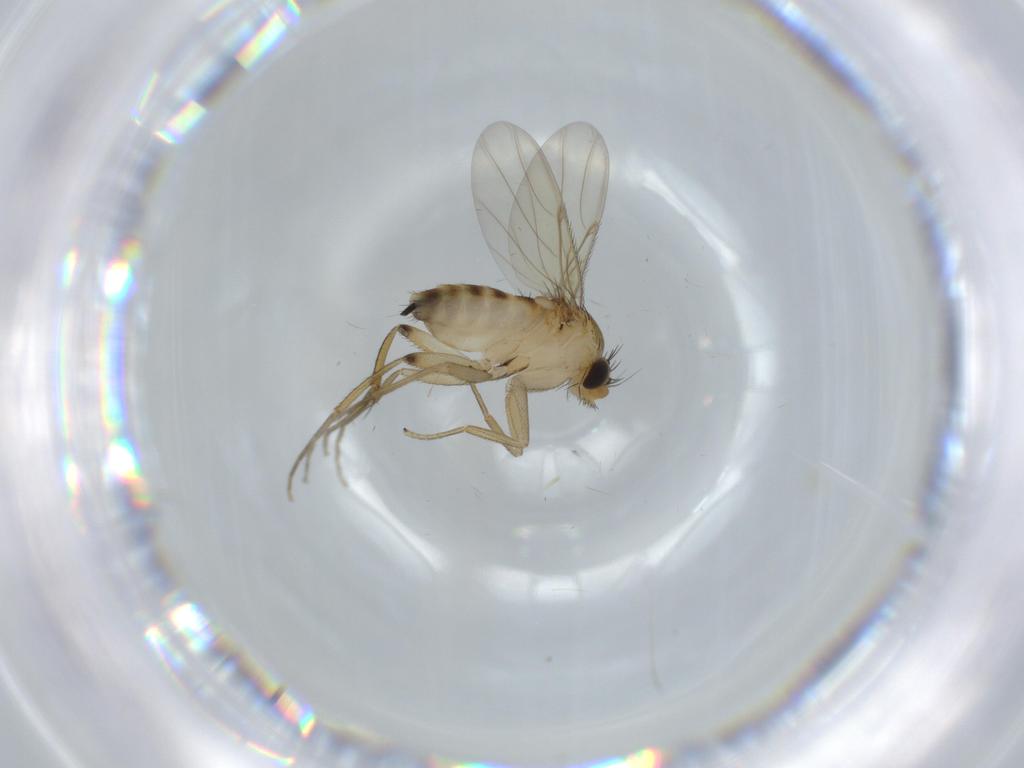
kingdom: Animalia
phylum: Arthropoda
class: Insecta
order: Diptera
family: Phoridae
